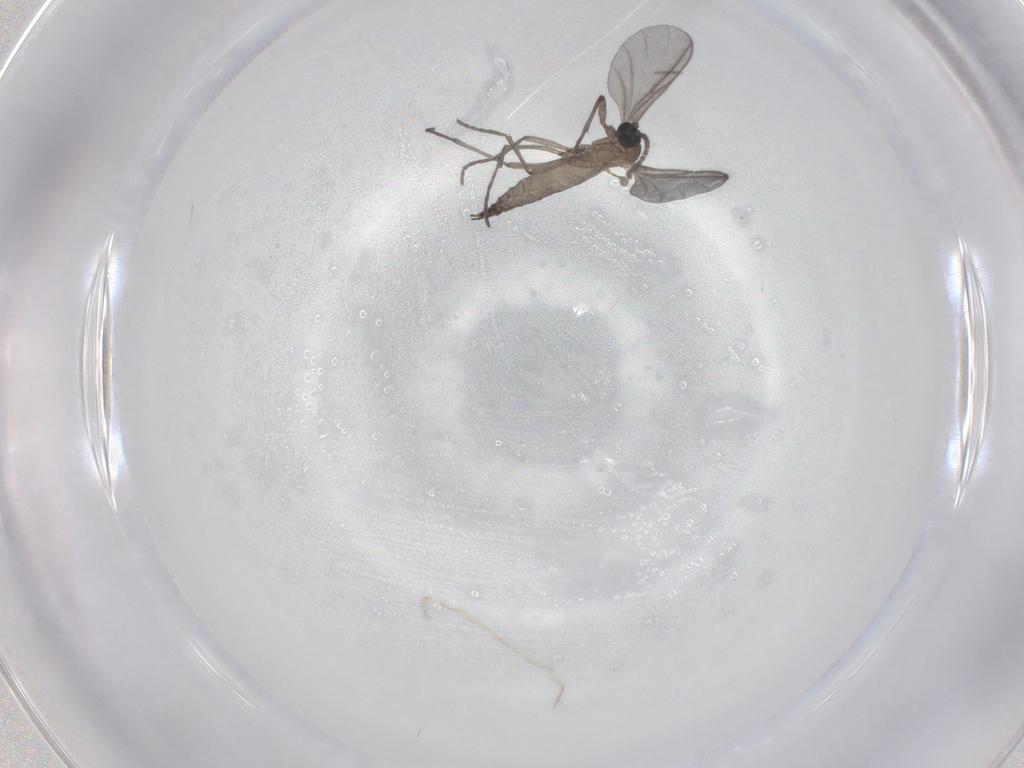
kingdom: Animalia
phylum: Arthropoda
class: Insecta
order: Diptera
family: Sciaridae
